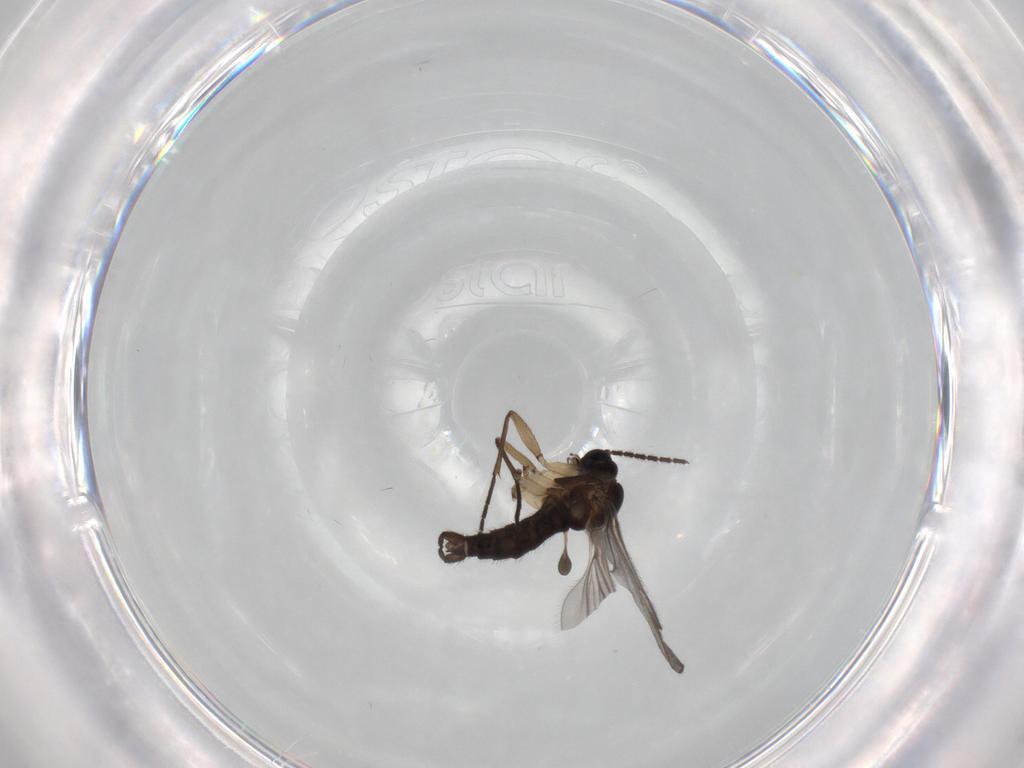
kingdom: Animalia
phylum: Arthropoda
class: Insecta
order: Diptera
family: Sciaridae
